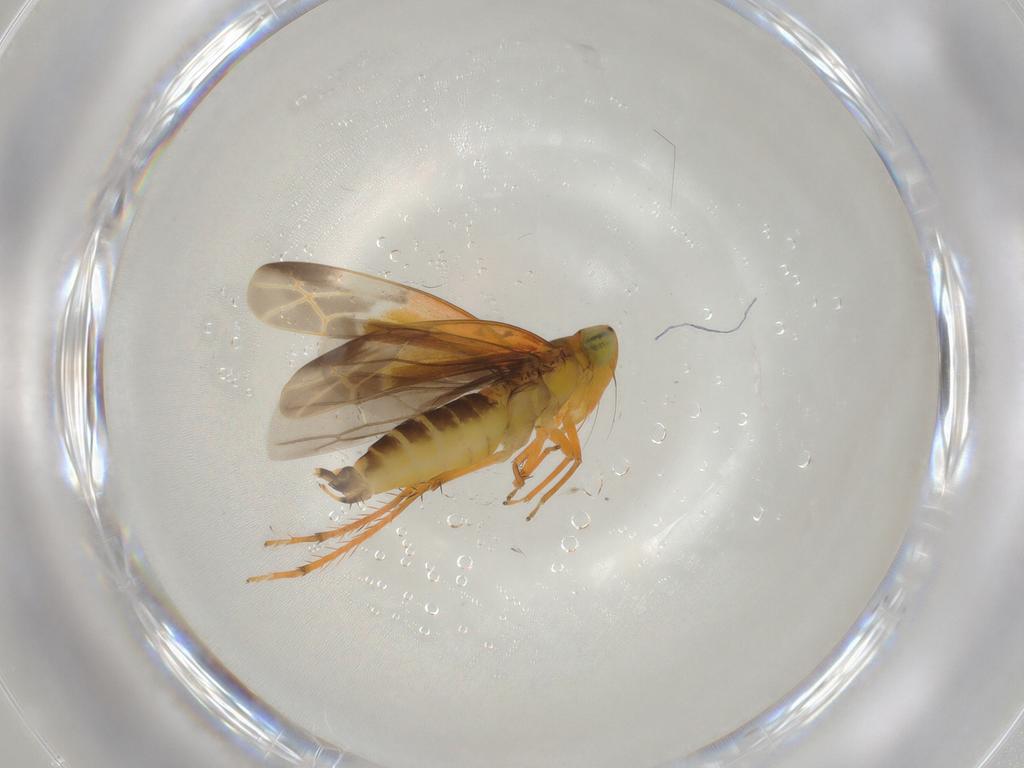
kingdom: Animalia
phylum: Arthropoda
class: Insecta
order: Hemiptera
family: Cicadellidae
